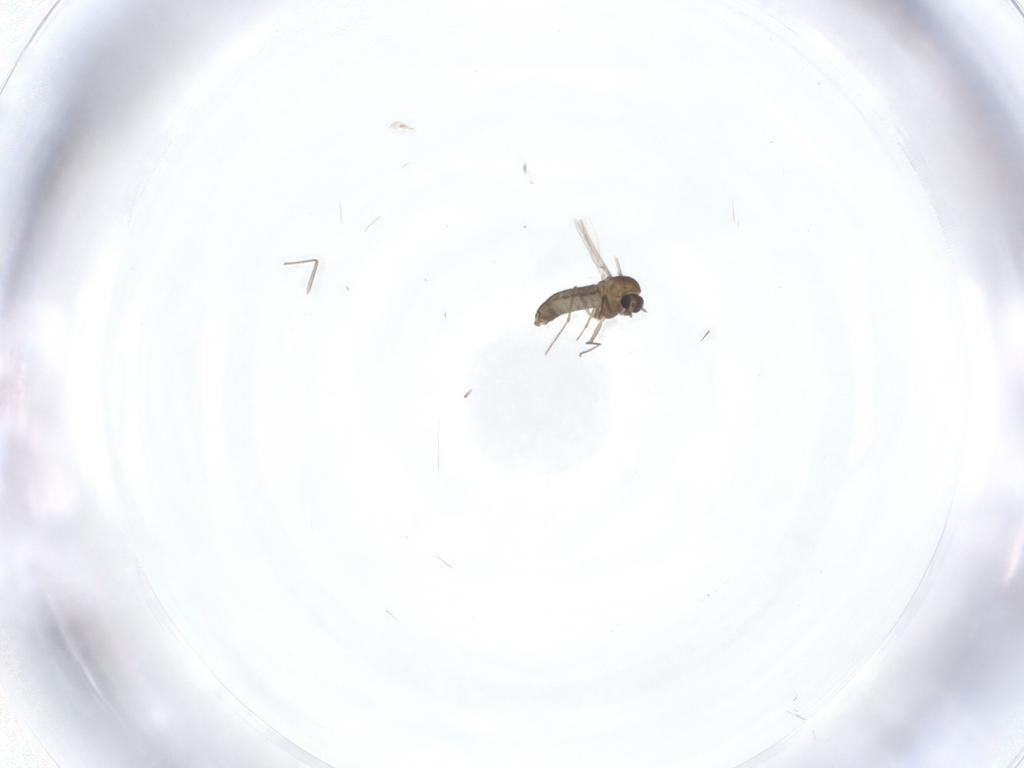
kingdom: Animalia
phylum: Arthropoda
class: Insecta
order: Diptera
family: Chironomidae
